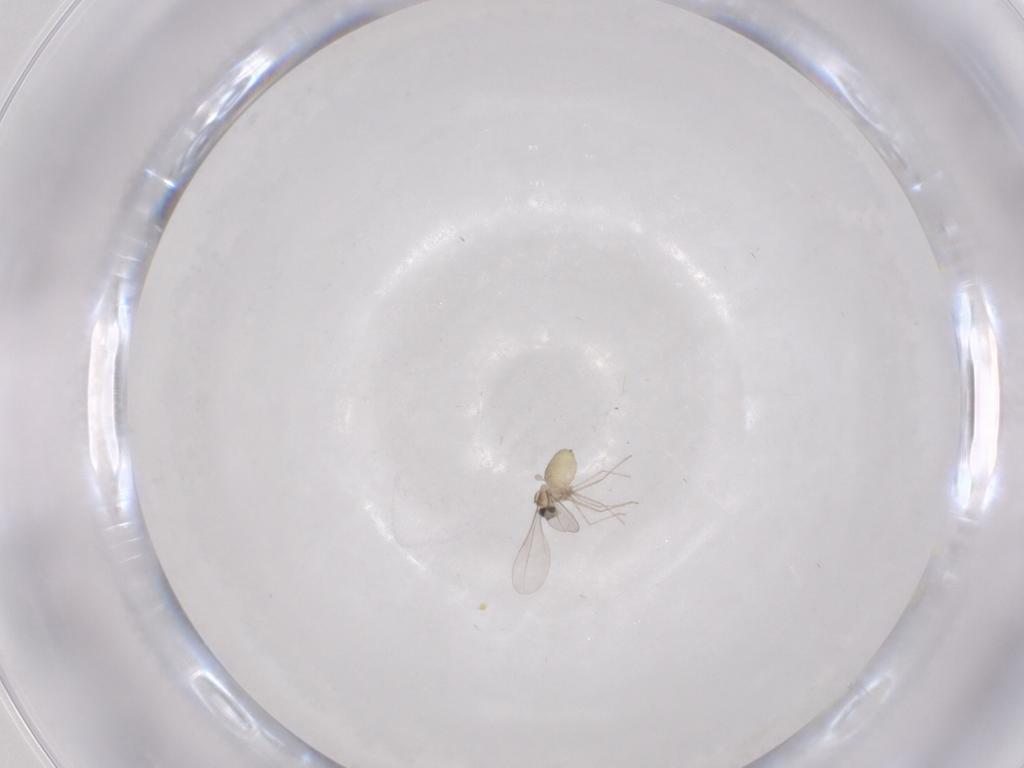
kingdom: Animalia
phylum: Arthropoda
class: Insecta
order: Diptera
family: Cecidomyiidae
